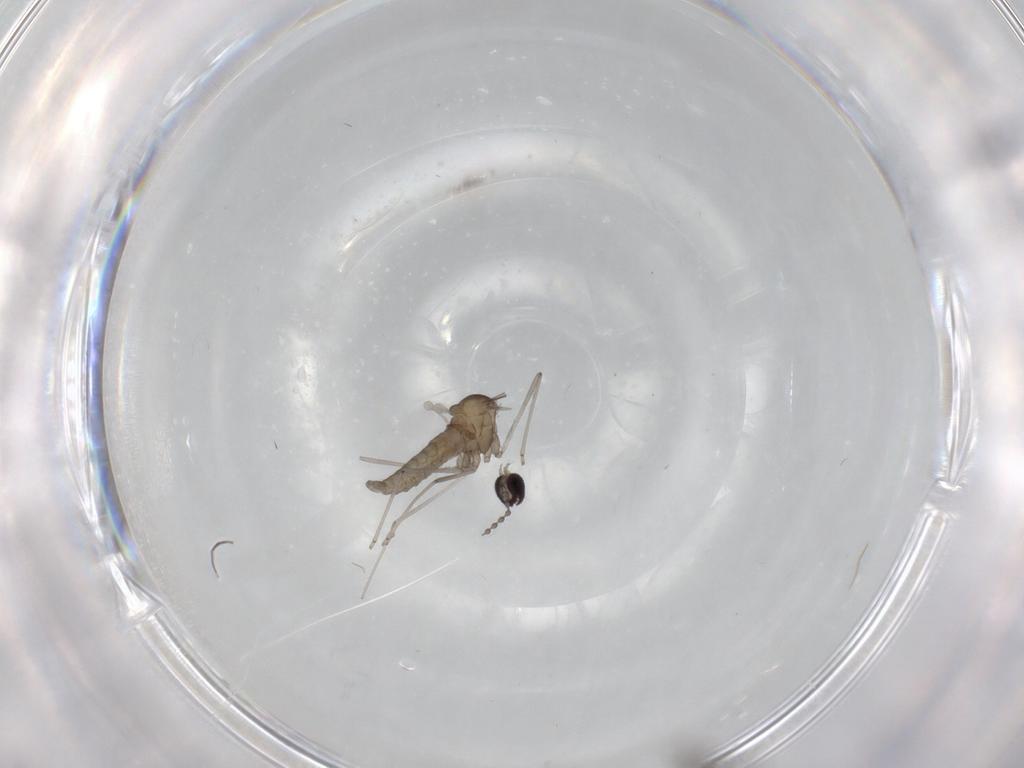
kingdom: Animalia
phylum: Arthropoda
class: Insecta
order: Diptera
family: Cecidomyiidae
